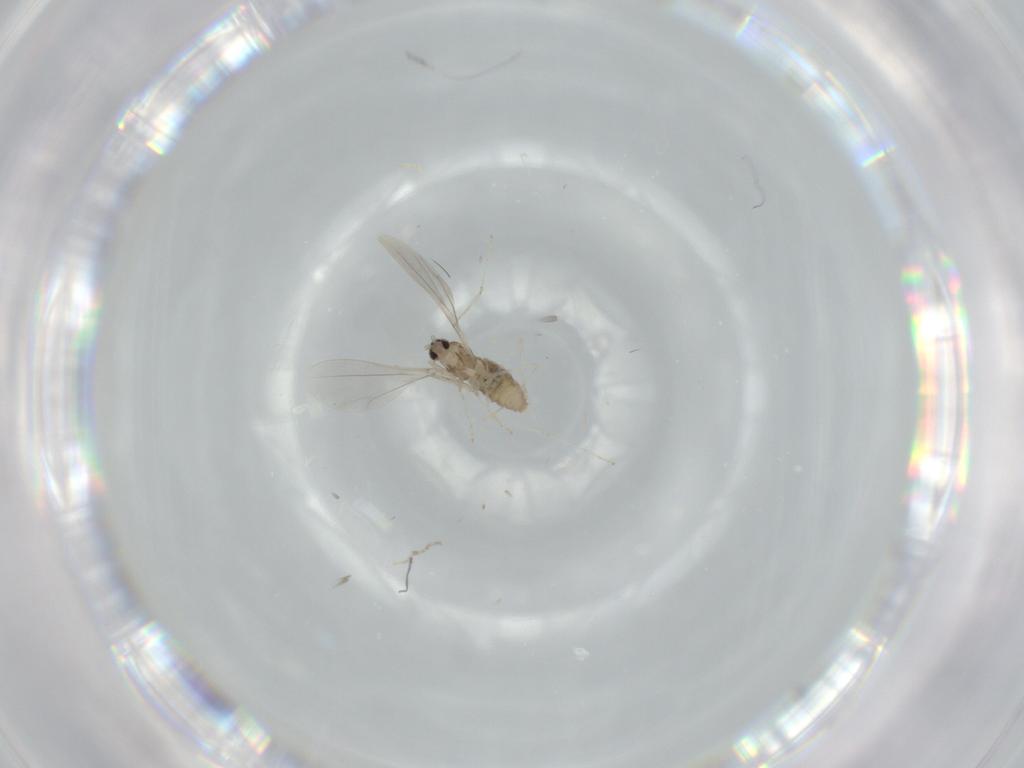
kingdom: Animalia
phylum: Arthropoda
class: Insecta
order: Diptera
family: Cecidomyiidae
